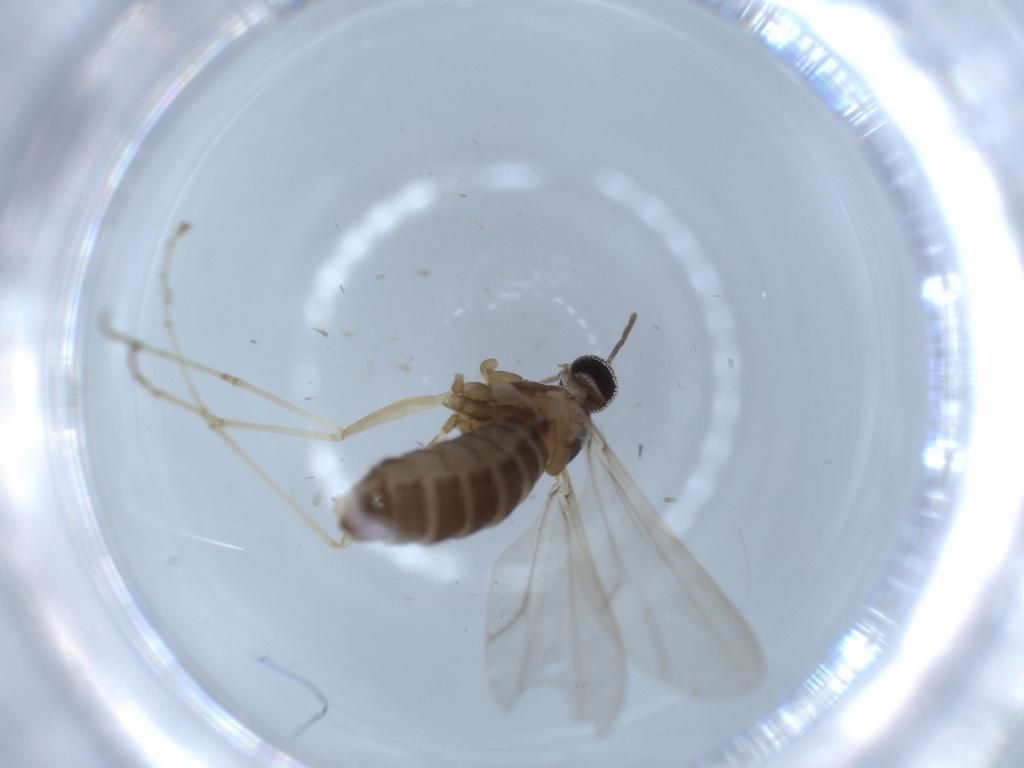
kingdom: Animalia
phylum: Arthropoda
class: Insecta
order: Diptera
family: Cecidomyiidae
